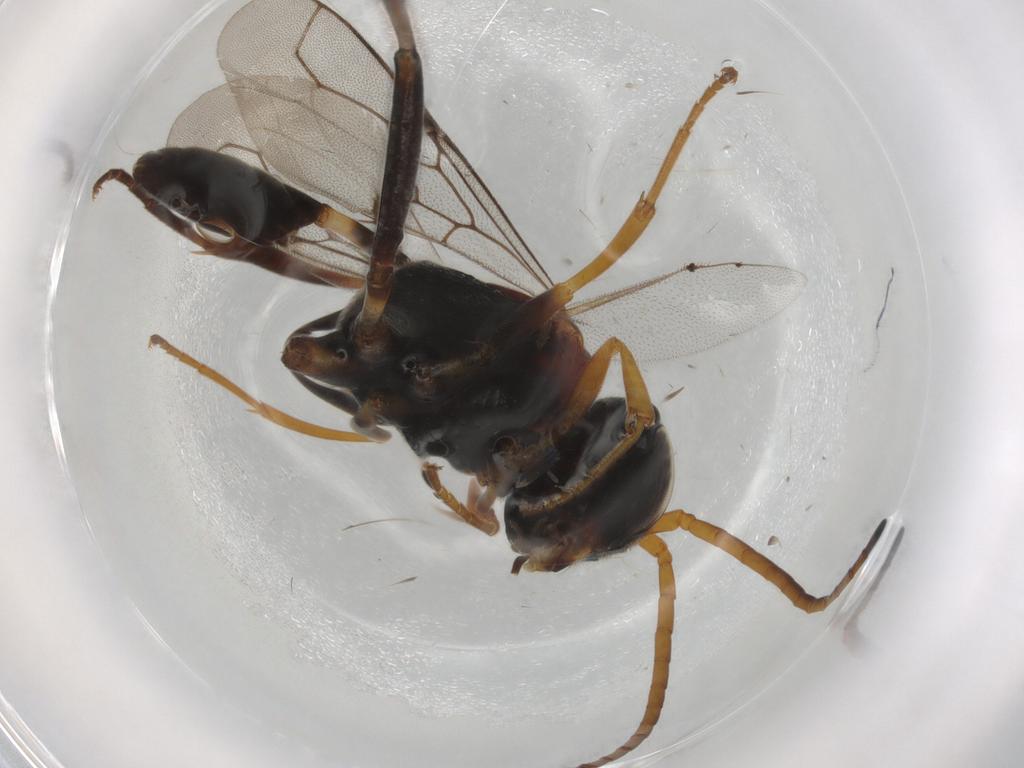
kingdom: Animalia
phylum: Arthropoda
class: Insecta
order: Hymenoptera
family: Evaniidae
